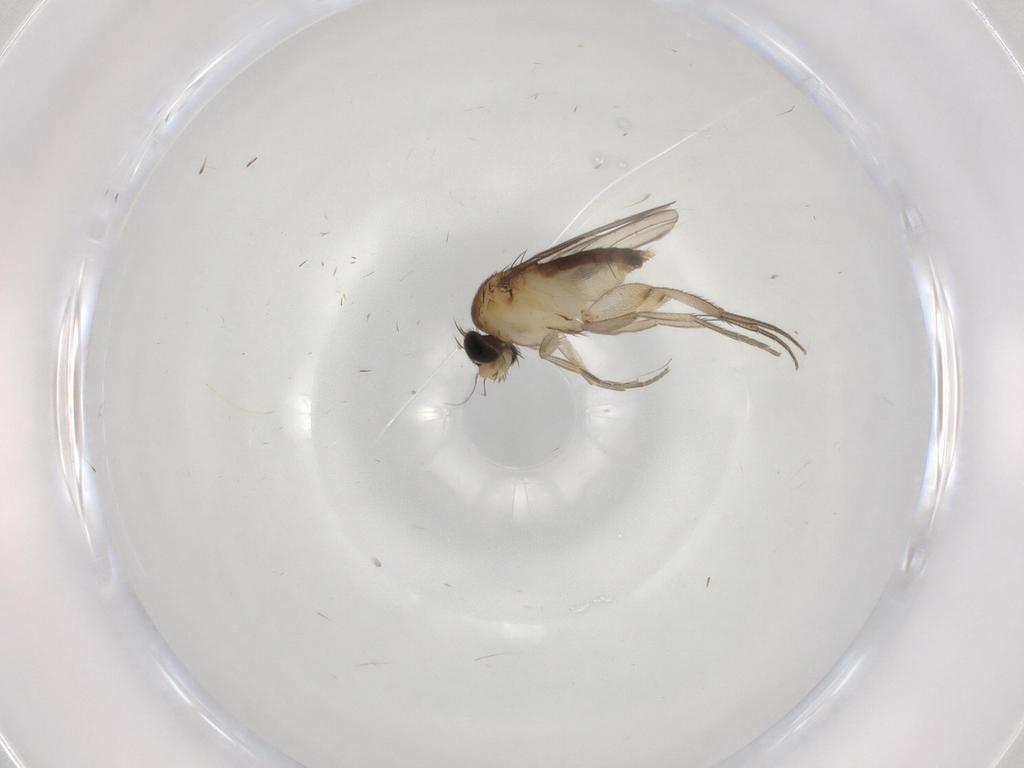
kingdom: Animalia
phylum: Arthropoda
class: Insecta
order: Diptera
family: Phoridae
